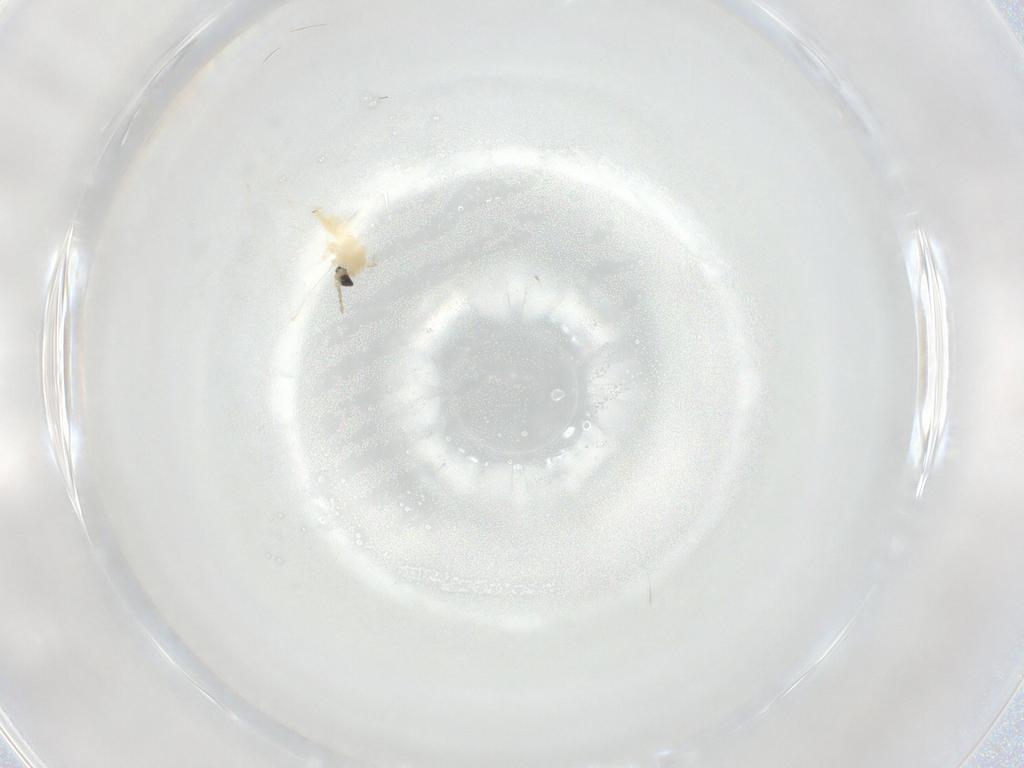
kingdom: Animalia
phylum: Arthropoda
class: Insecta
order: Diptera
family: Cecidomyiidae
